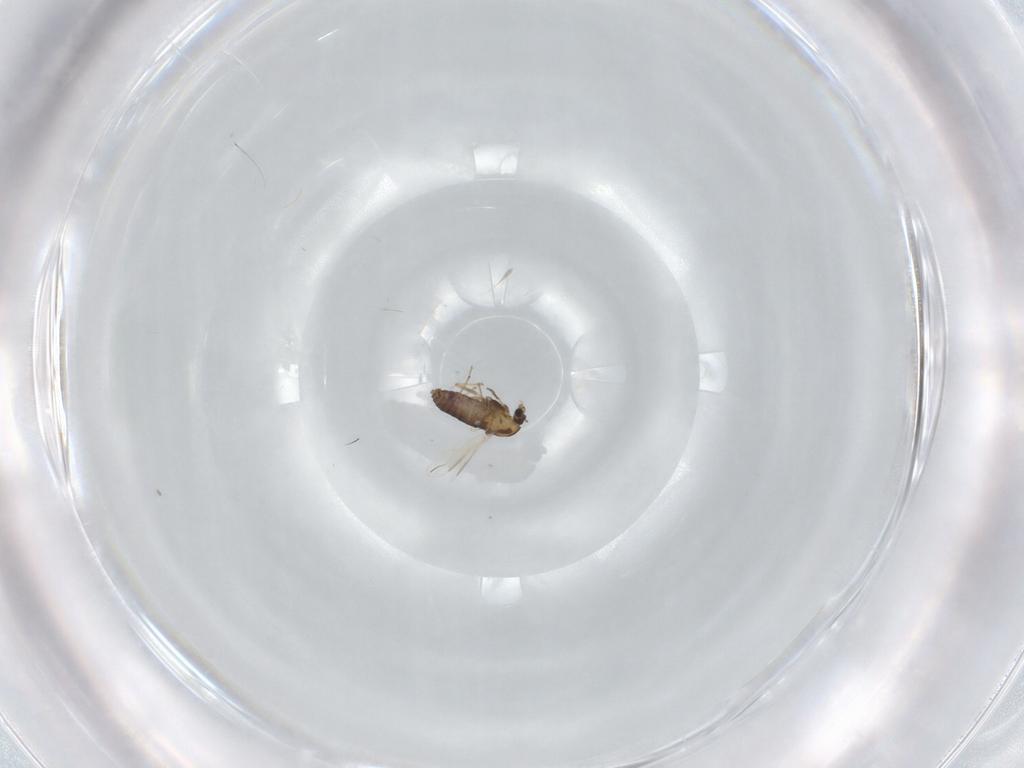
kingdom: Animalia
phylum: Arthropoda
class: Insecta
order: Diptera
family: Chironomidae
